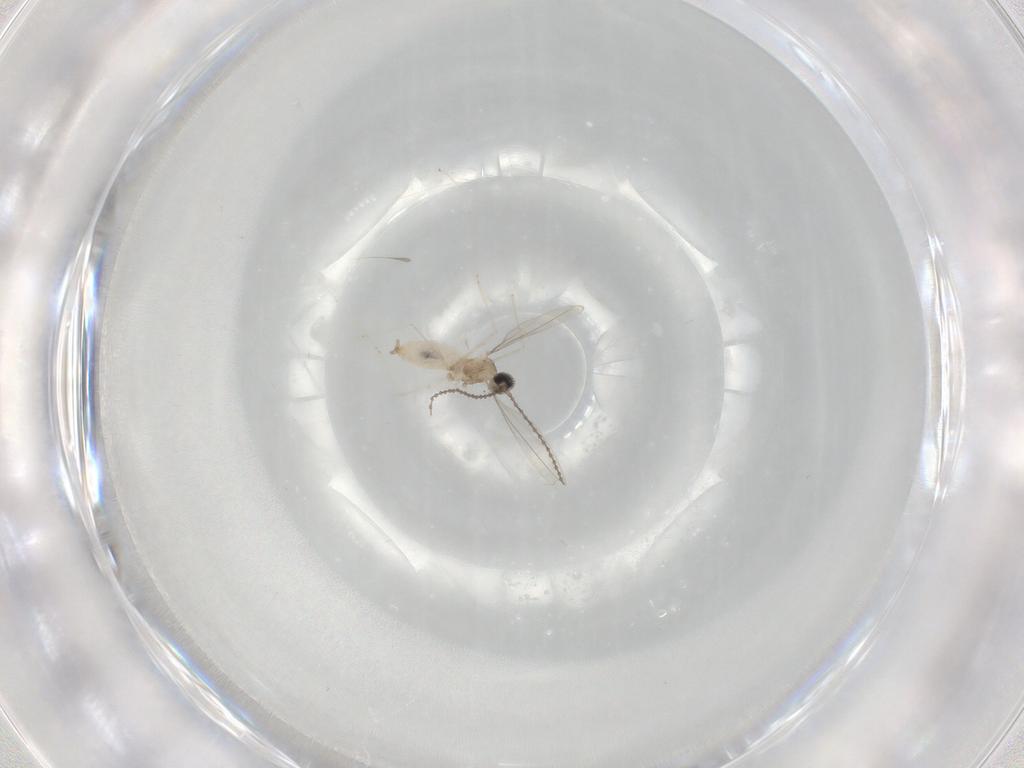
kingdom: Animalia
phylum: Arthropoda
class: Insecta
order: Diptera
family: Cecidomyiidae
